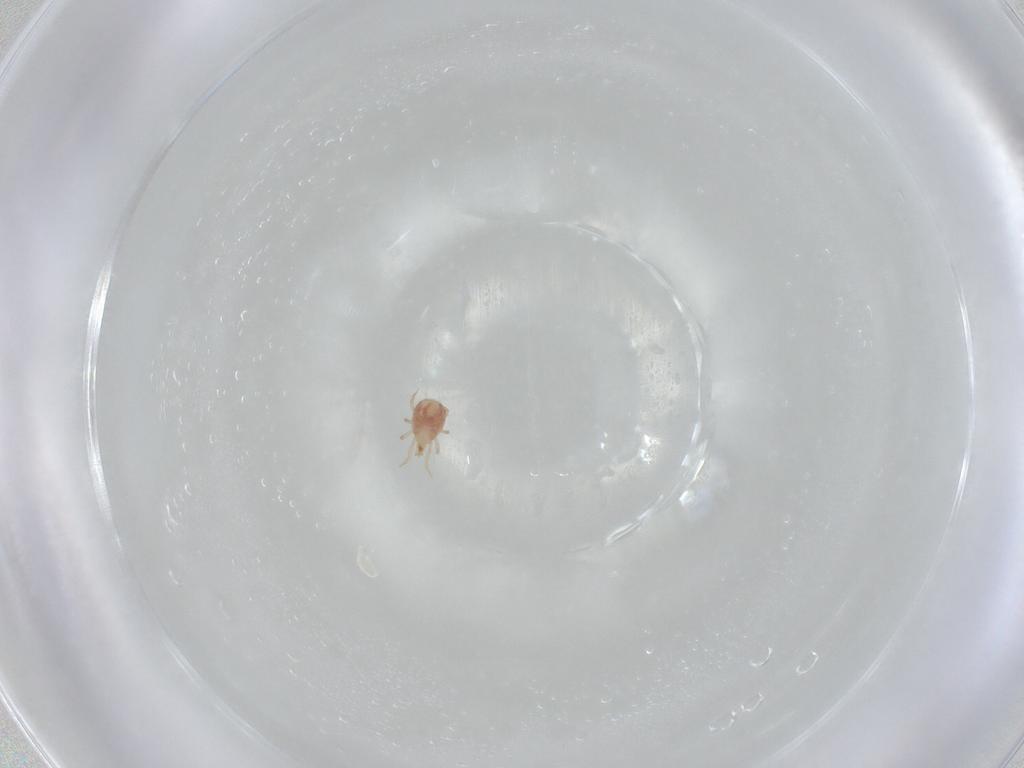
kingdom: Animalia
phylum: Arthropoda
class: Arachnida
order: Mesostigmata
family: Phytoseiidae
